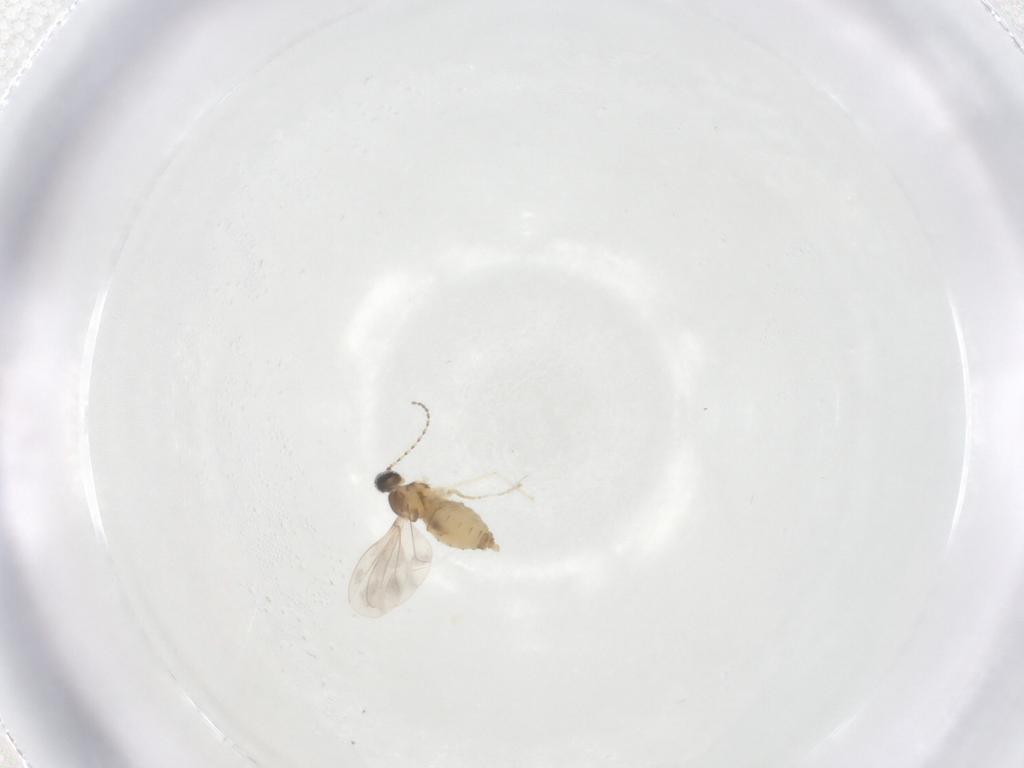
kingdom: Animalia
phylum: Arthropoda
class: Insecta
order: Diptera
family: Cecidomyiidae
